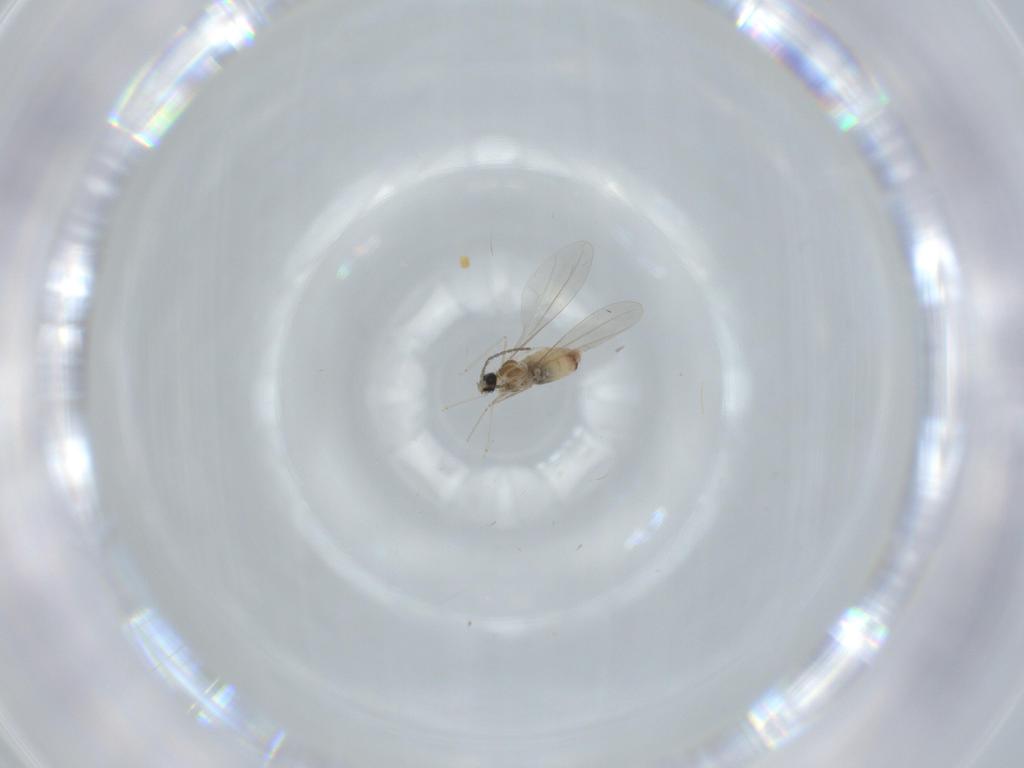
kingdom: Animalia
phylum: Arthropoda
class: Insecta
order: Diptera
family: Cecidomyiidae
